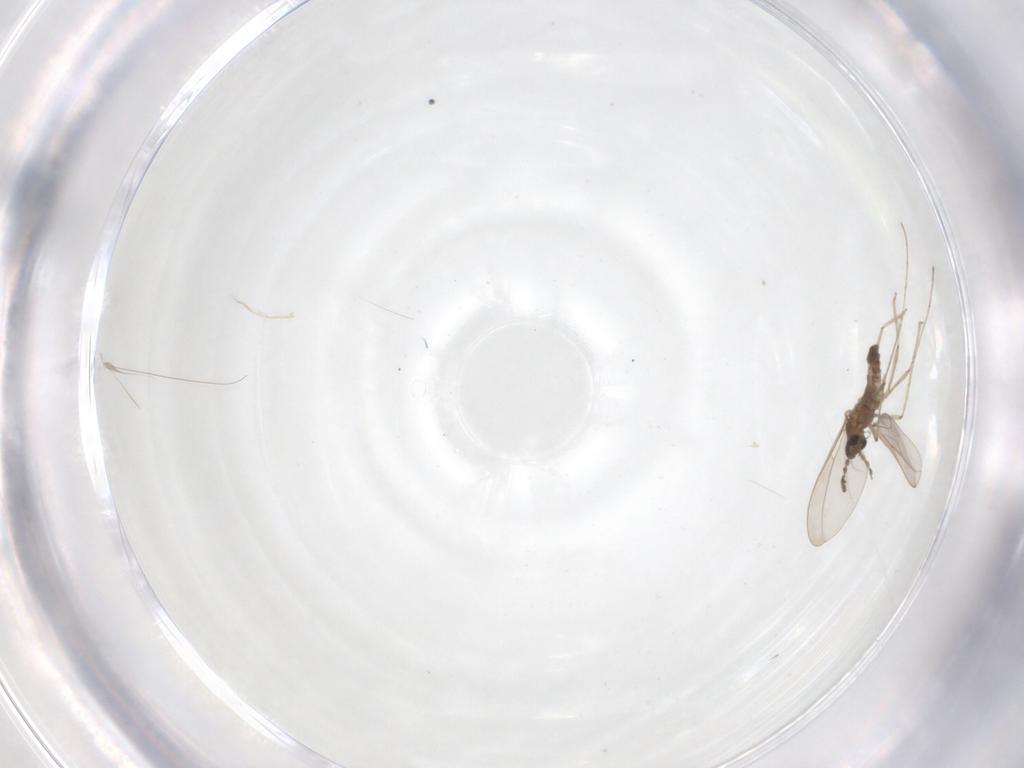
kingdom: Animalia
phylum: Arthropoda
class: Insecta
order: Diptera
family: Cecidomyiidae
